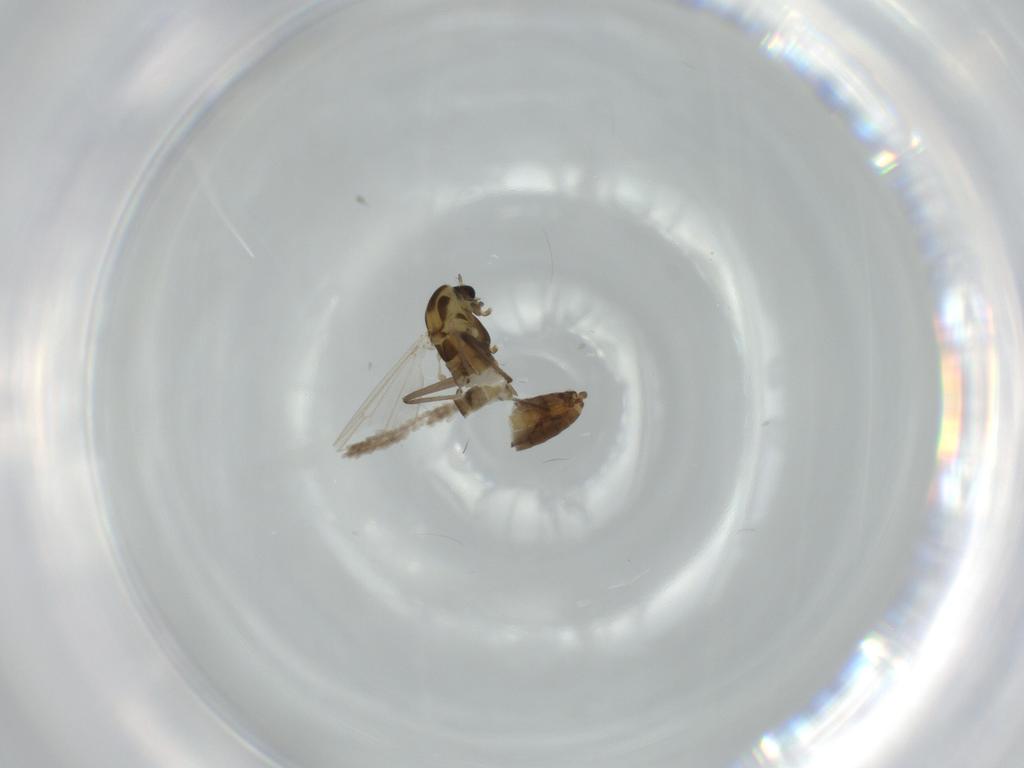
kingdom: Animalia
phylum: Arthropoda
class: Insecta
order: Diptera
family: Chironomidae
